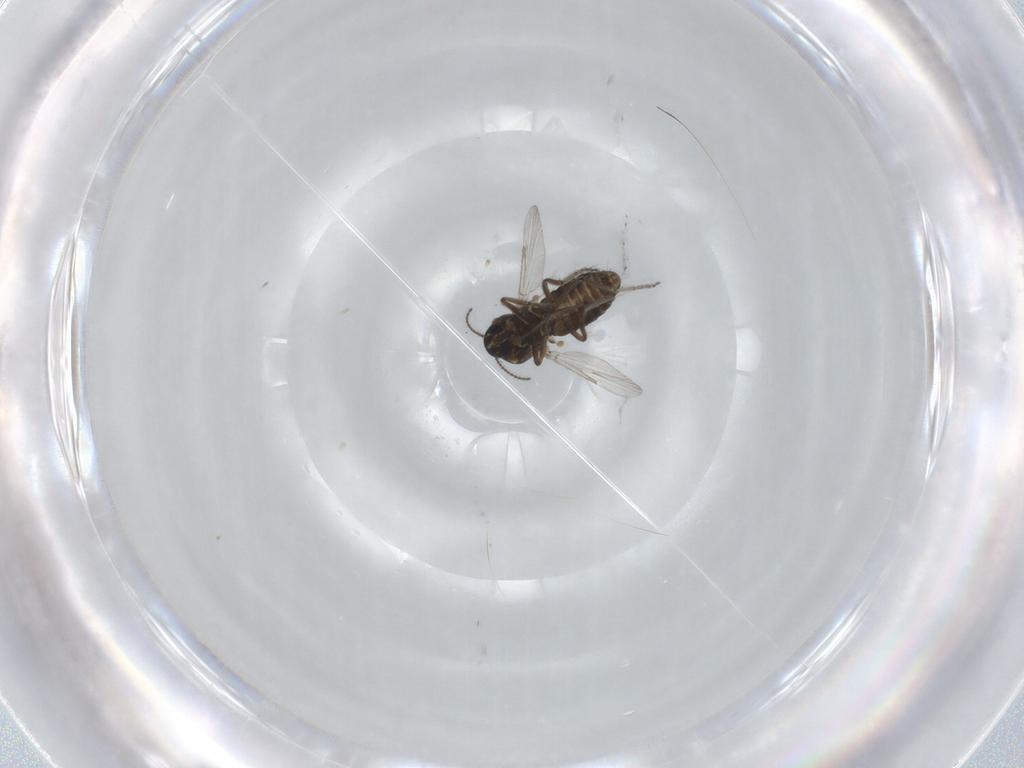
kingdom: Animalia
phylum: Arthropoda
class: Insecta
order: Diptera
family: Ceratopogonidae
